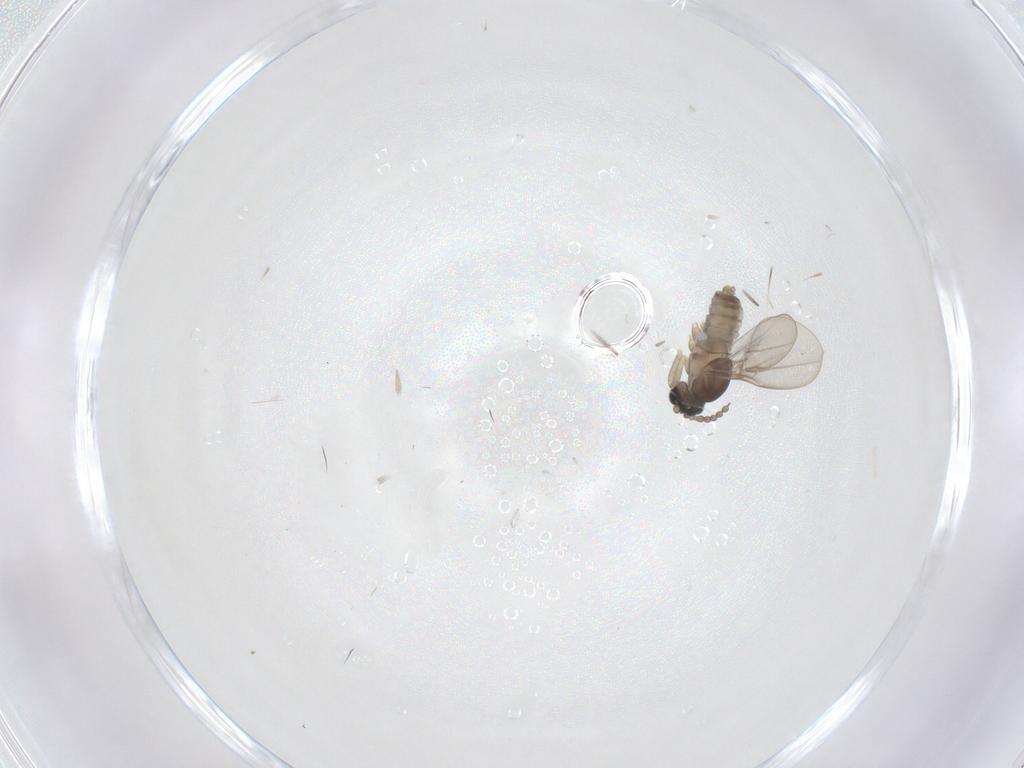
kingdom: Animalia
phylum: Arthropoda
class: Insecta
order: Diptera
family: Cecidomyiidae
